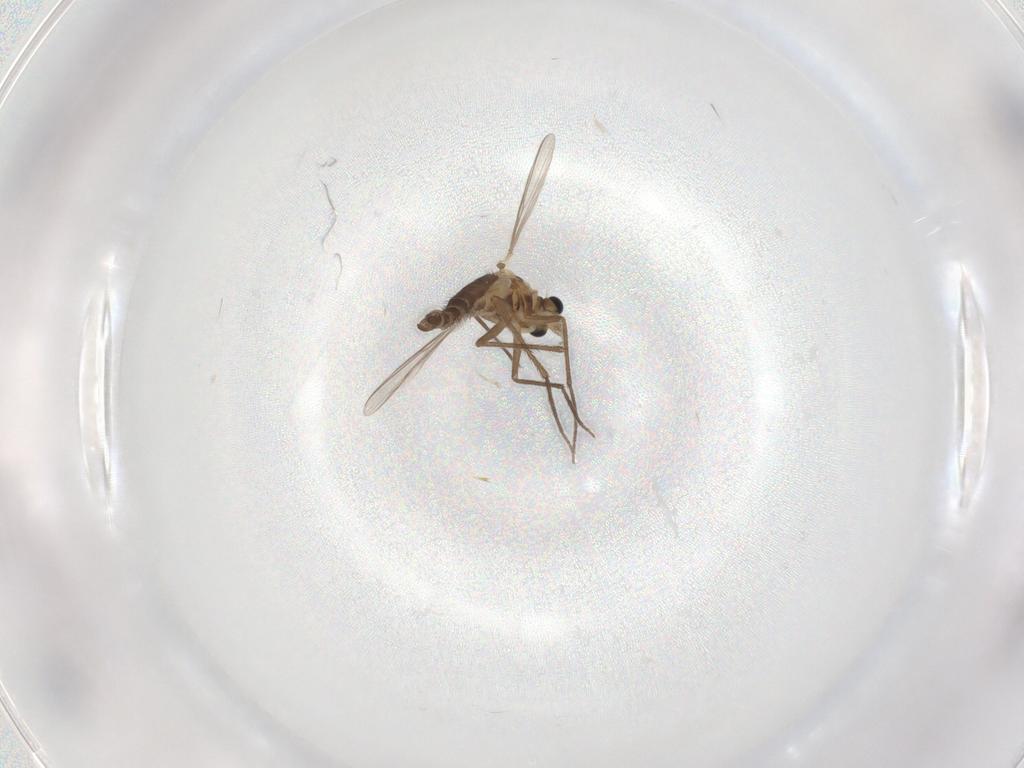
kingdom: Animalia
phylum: Arthropoda
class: Insecta
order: Diptera
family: Chironomidae
